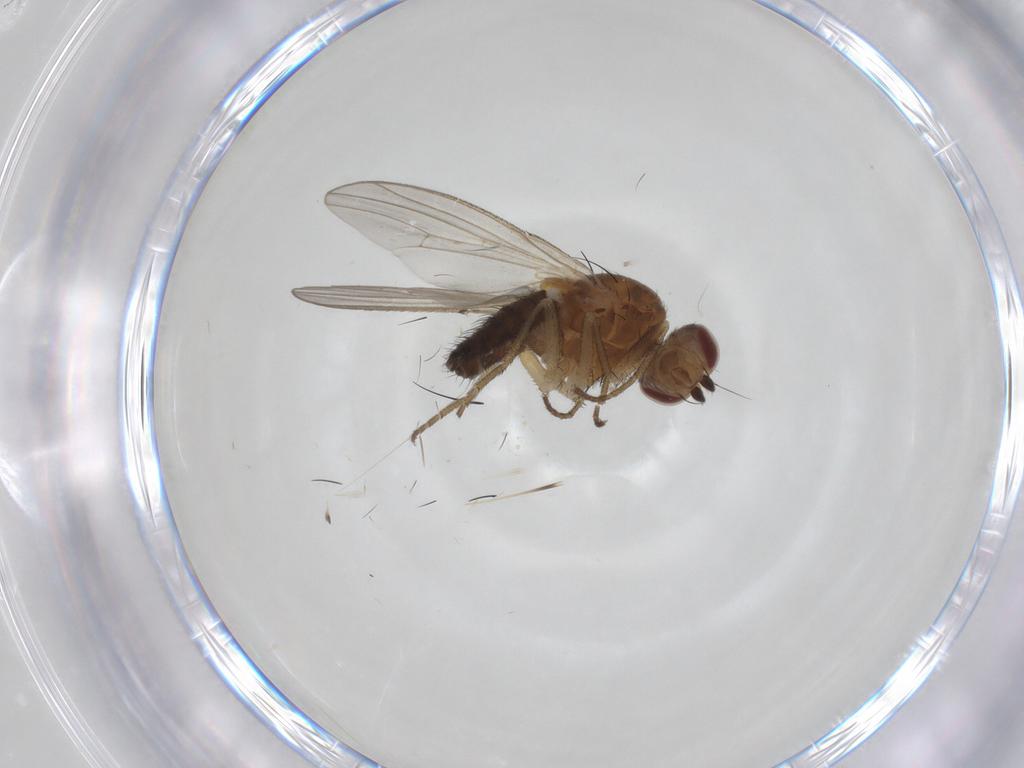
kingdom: Animalia
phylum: Arthropoda
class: Insecta
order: Diptera
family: Heleomyzidae
